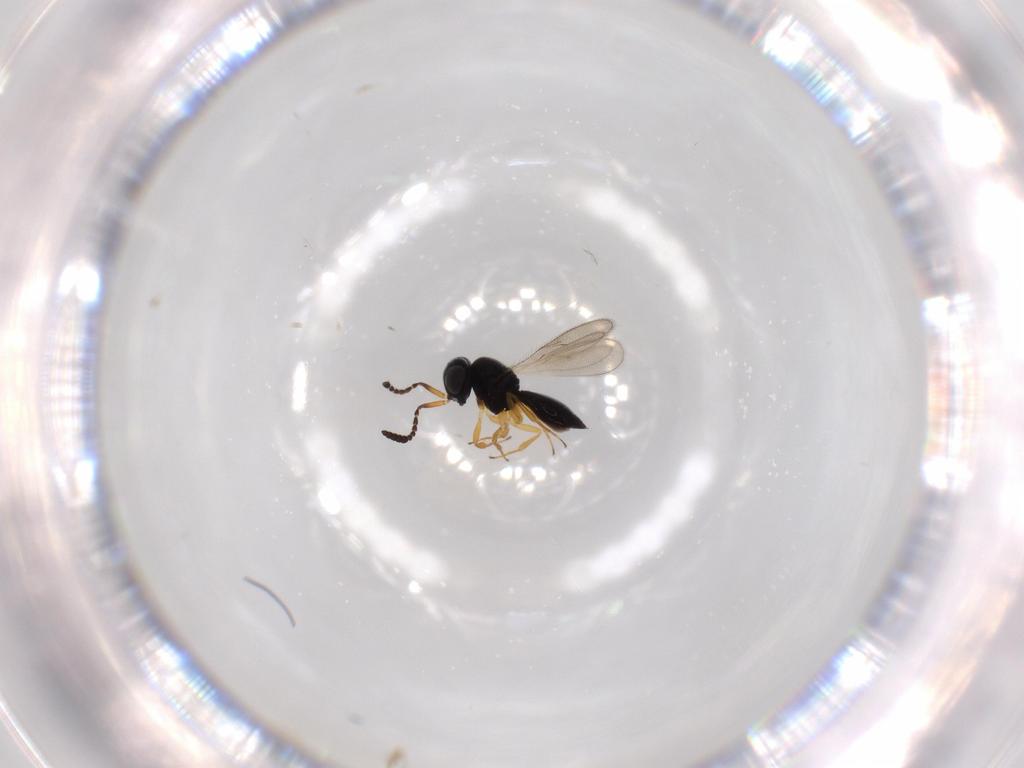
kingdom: Animalia
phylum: Arthropoda
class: Insecta
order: Hymenoptera
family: Scelionidae
